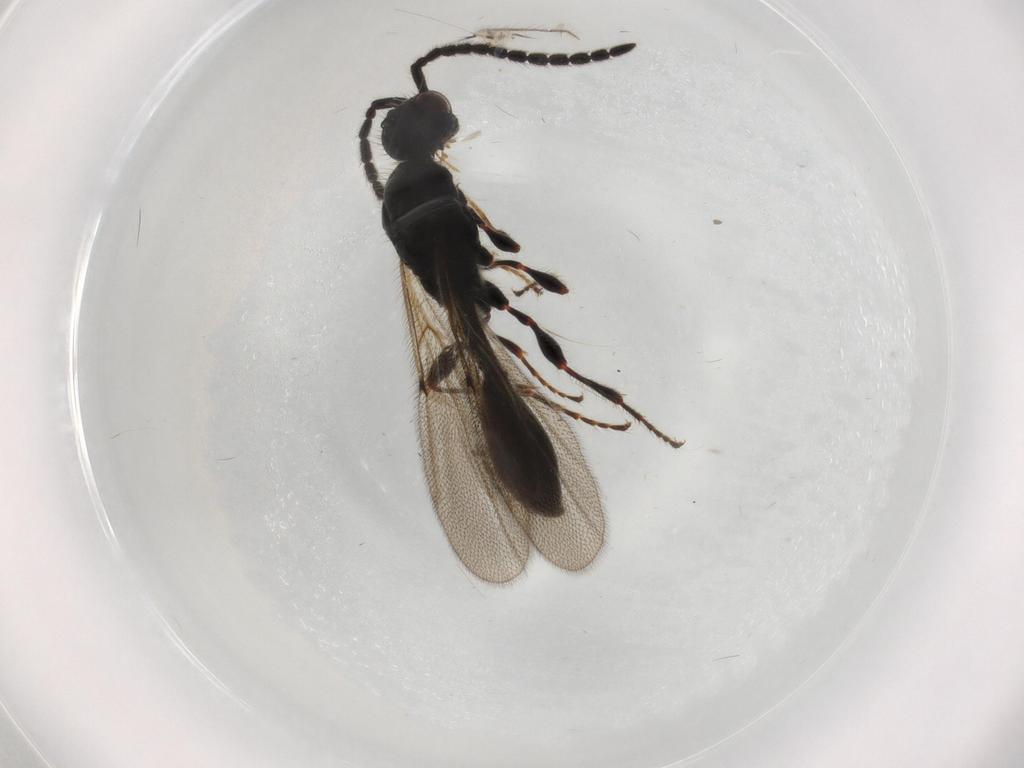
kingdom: Animalia
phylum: Arthropoda
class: Insecta
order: Hymenoptera
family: Diapriidae
